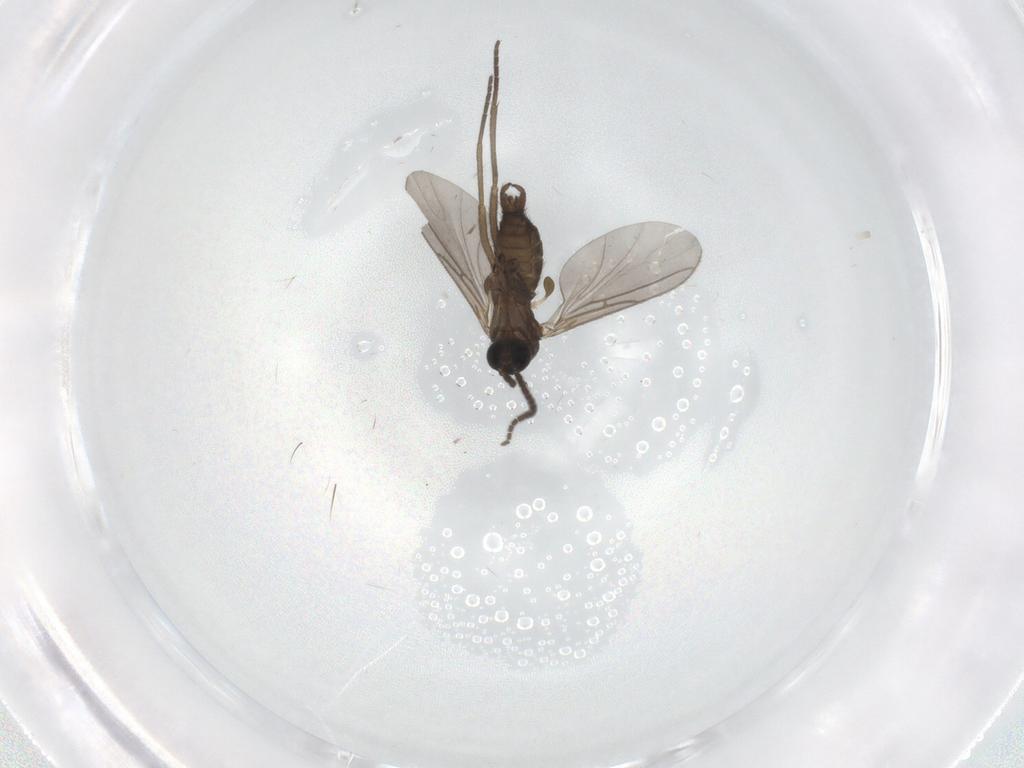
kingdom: Animalia
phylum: Arthropoda
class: Insecta
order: Diptera
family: Sciaridae
